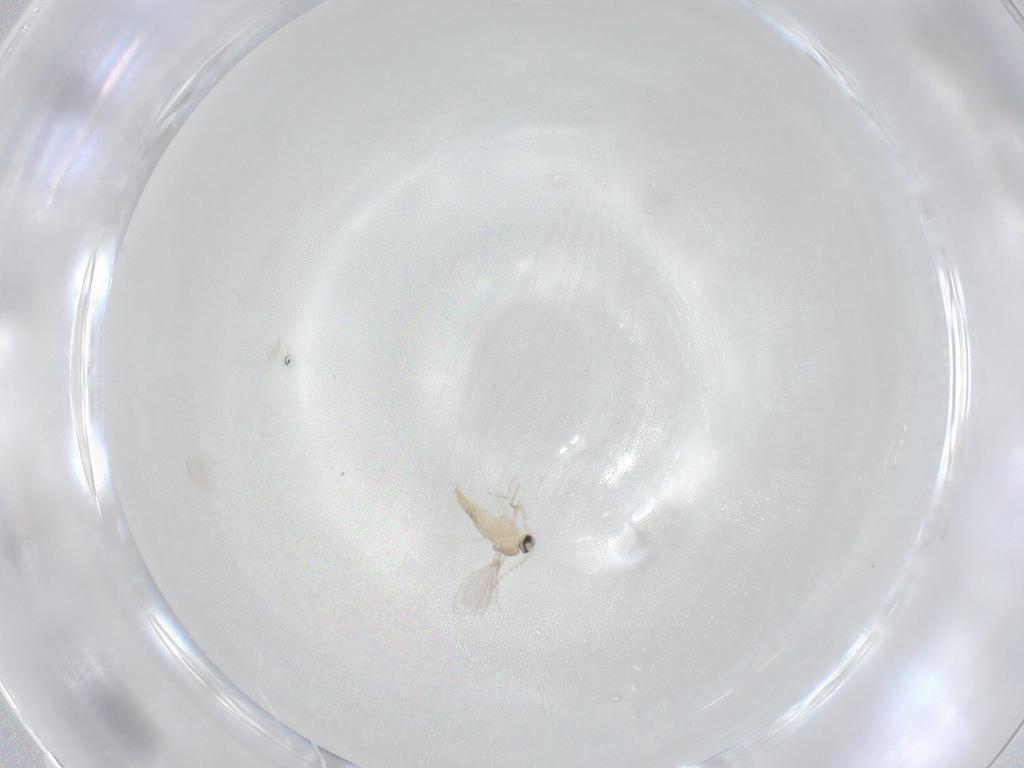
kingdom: Animalia
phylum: Arthropoda
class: Insecta
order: Diptera
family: Cecidomyiidae
